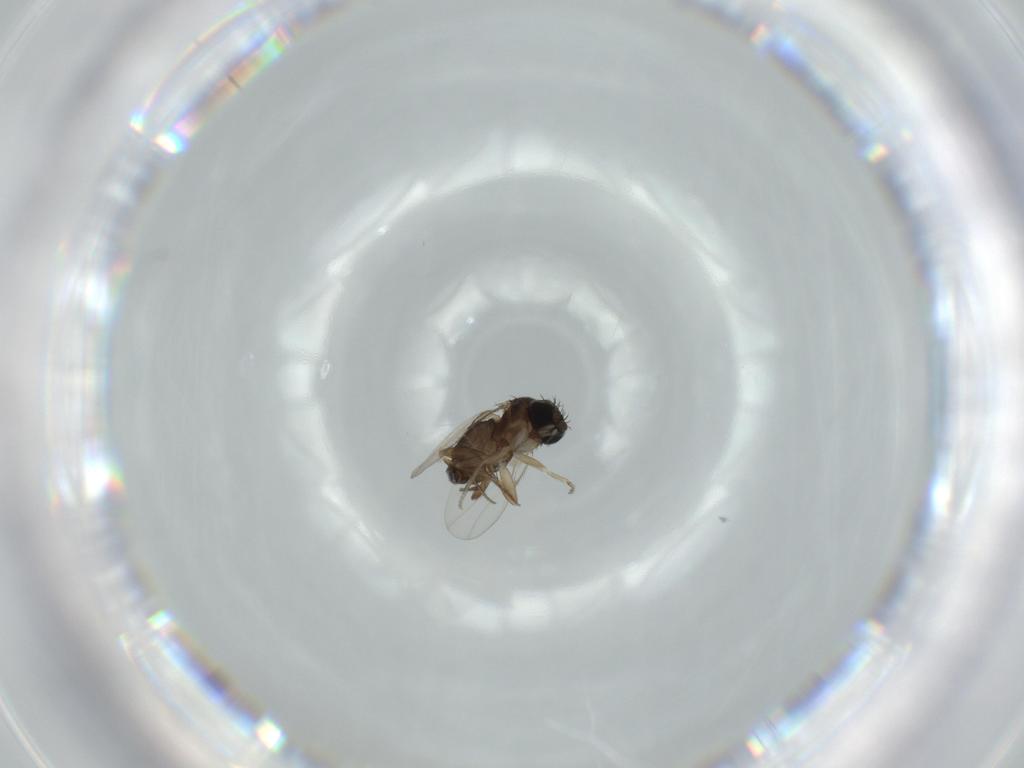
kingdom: Animalia
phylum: Arthropoda
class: Insecta
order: Diptera
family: Phoridae
